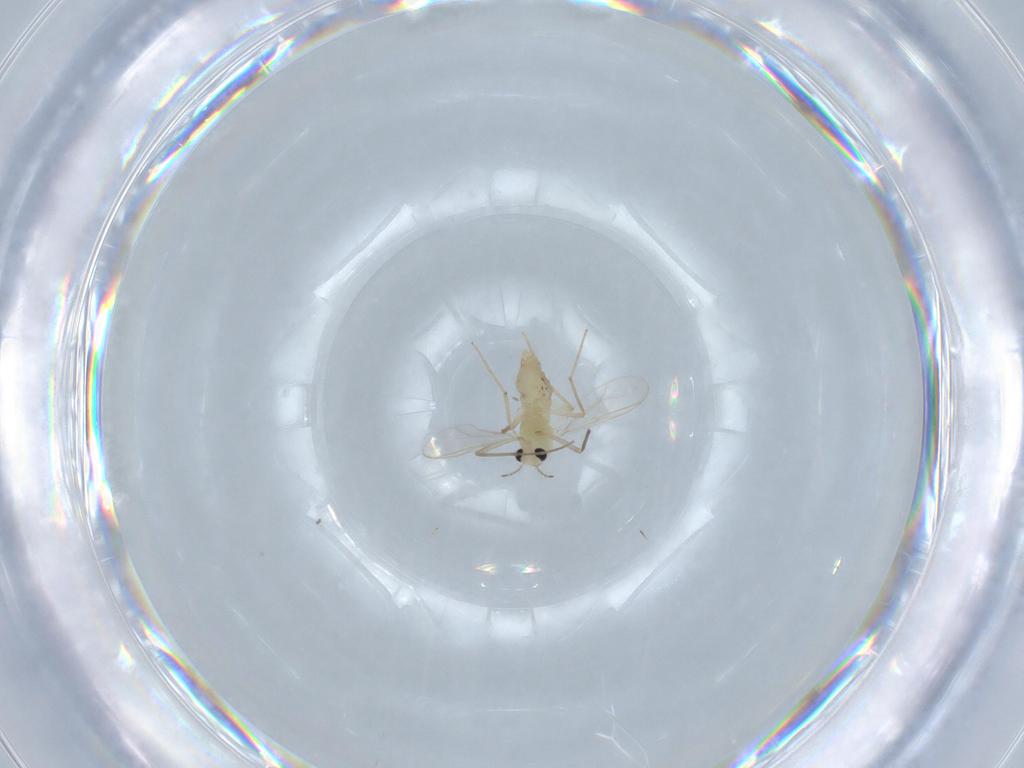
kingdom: Animalia
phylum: Arthropoda
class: Insecta
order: Diptera
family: Chironomidae
